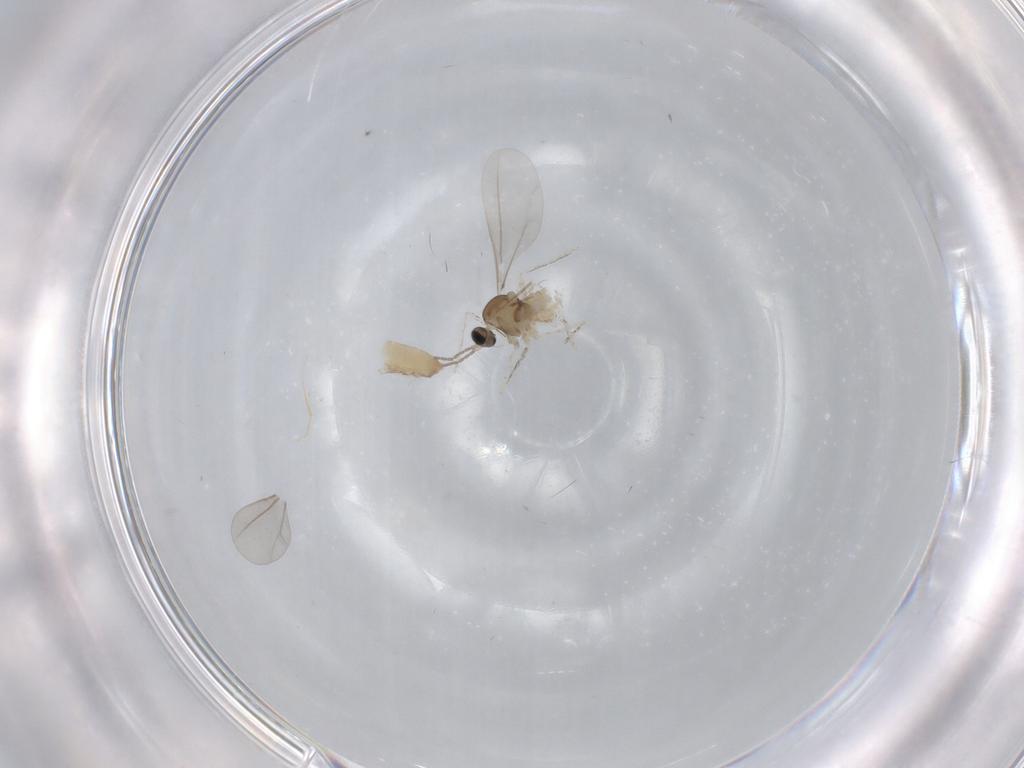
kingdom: Animalia
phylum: Arthropoda
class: Insecta
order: Diptera
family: Cecidomyiidae
